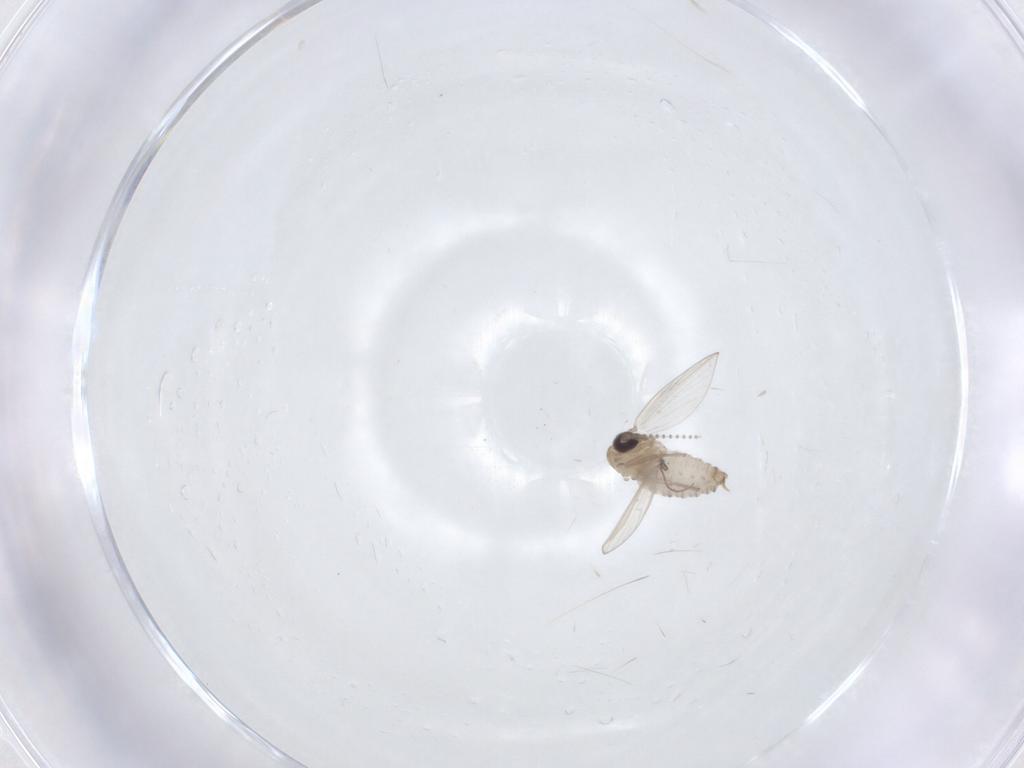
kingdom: Animalia
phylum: Arthropoda
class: Insecta
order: Diptera
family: Psychodidae
